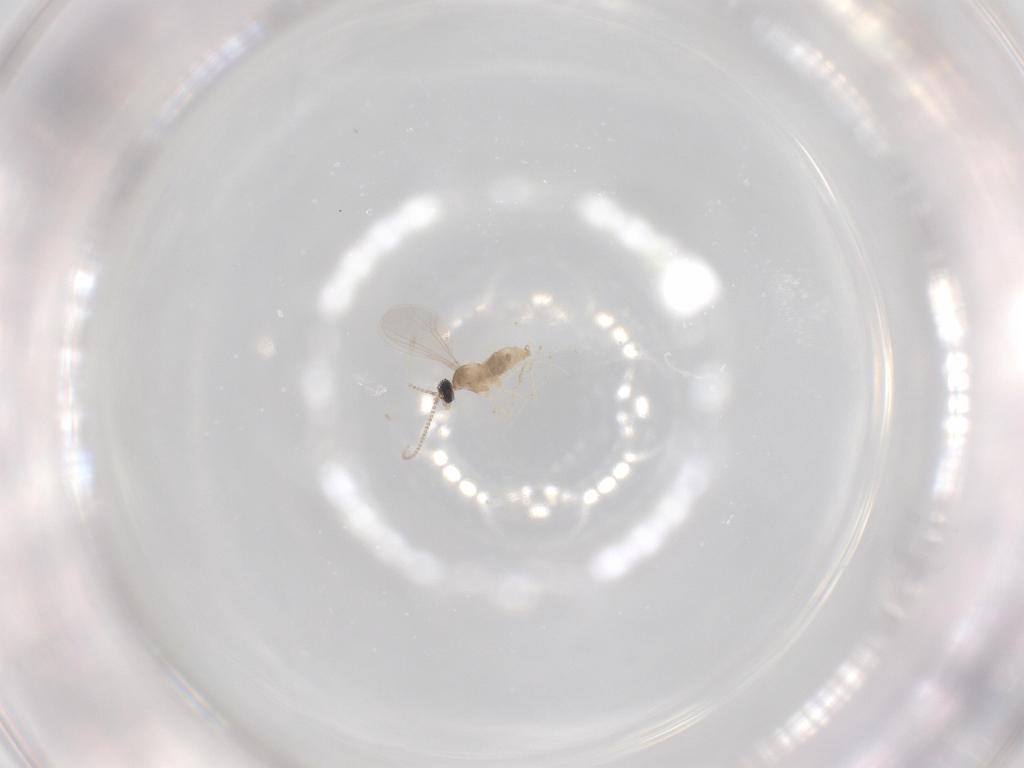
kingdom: Animalia
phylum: Arthropoda
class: Insecta
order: Diptera
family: Cecidomyiidae
